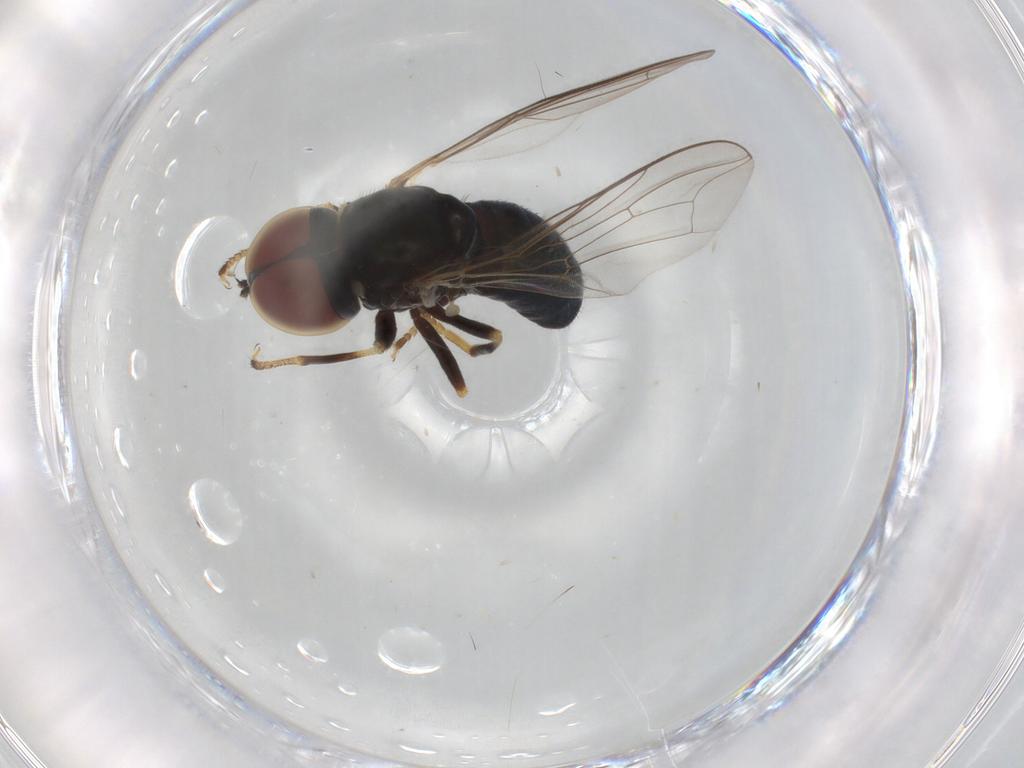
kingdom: Animalia
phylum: Arthropoda
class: Insecta
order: Diptera
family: Pipunculidae
